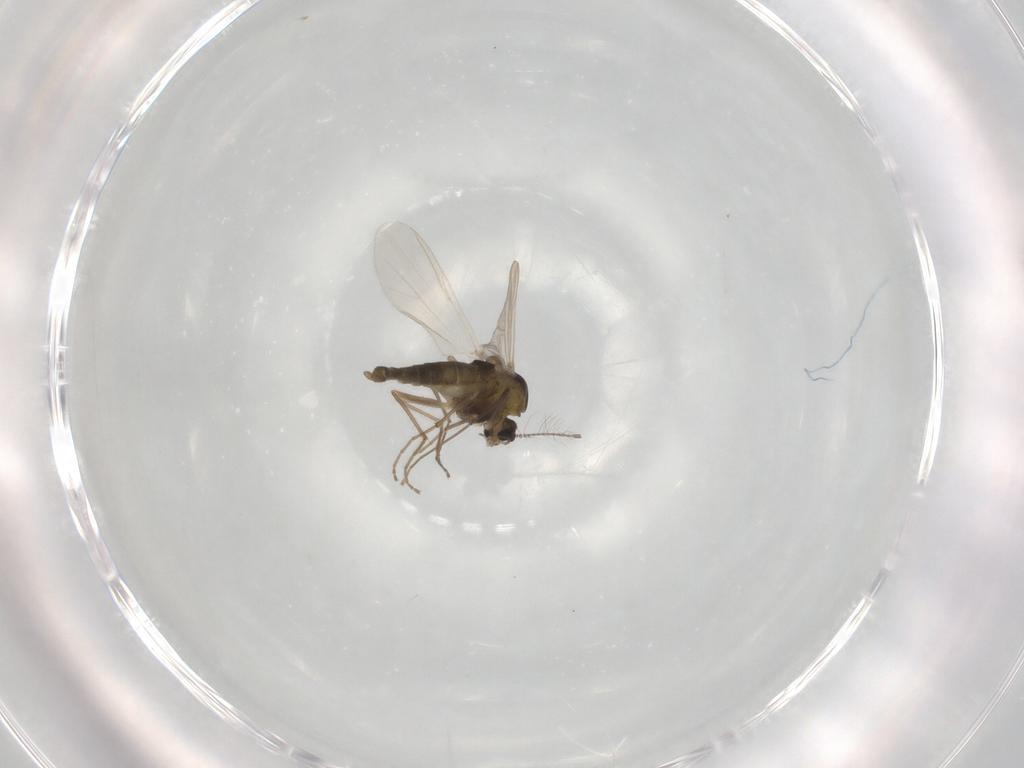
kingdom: Animalia
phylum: Arthropoda
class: Insecta
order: Diptera
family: Chironomidae
